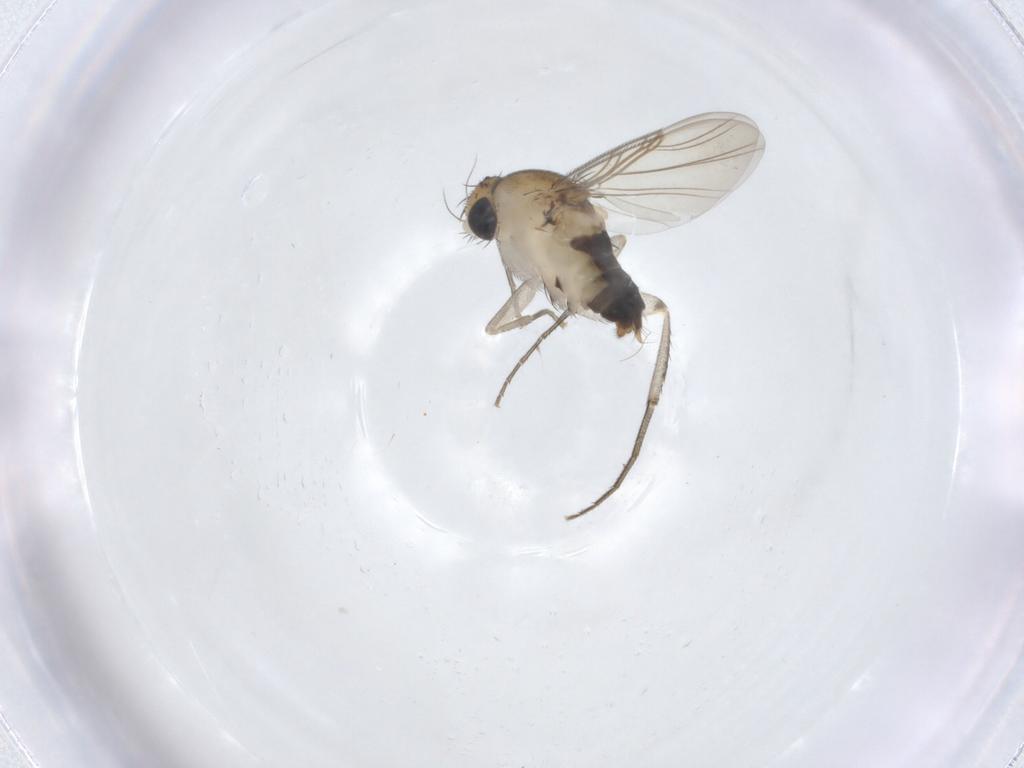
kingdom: Animalia
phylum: Arthropoda
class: Insecta
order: Diptera
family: Phoridae
